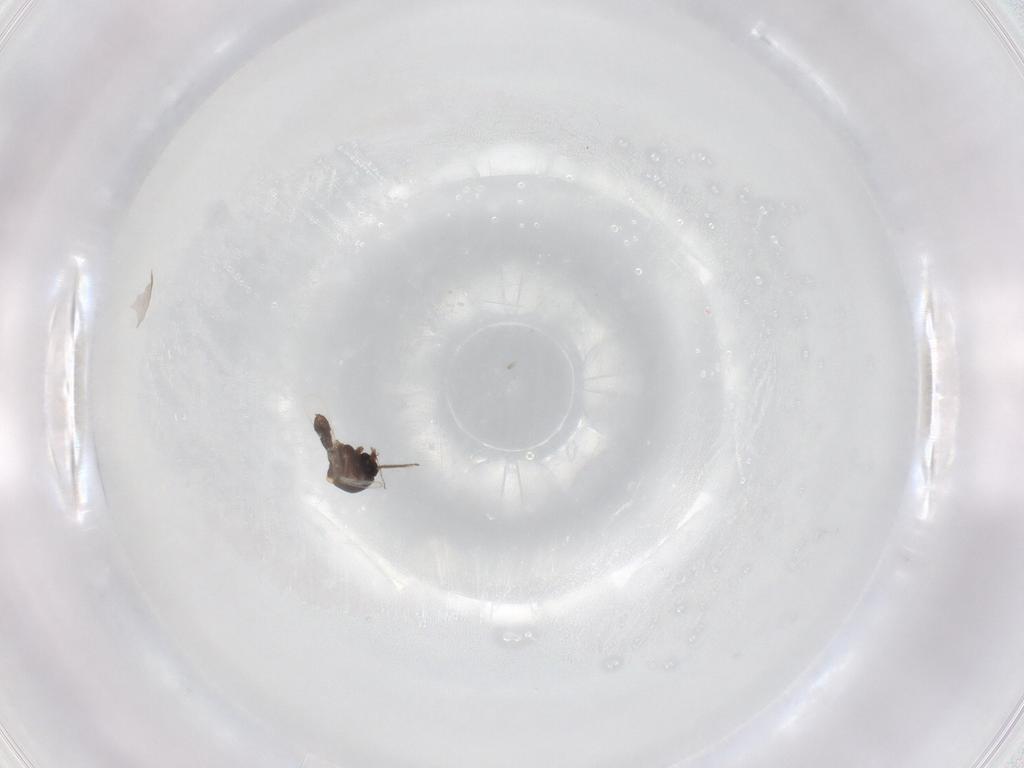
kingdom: Animalia
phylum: Arthropoda
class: Insecta
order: Diptera
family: Ceratopogonidae
